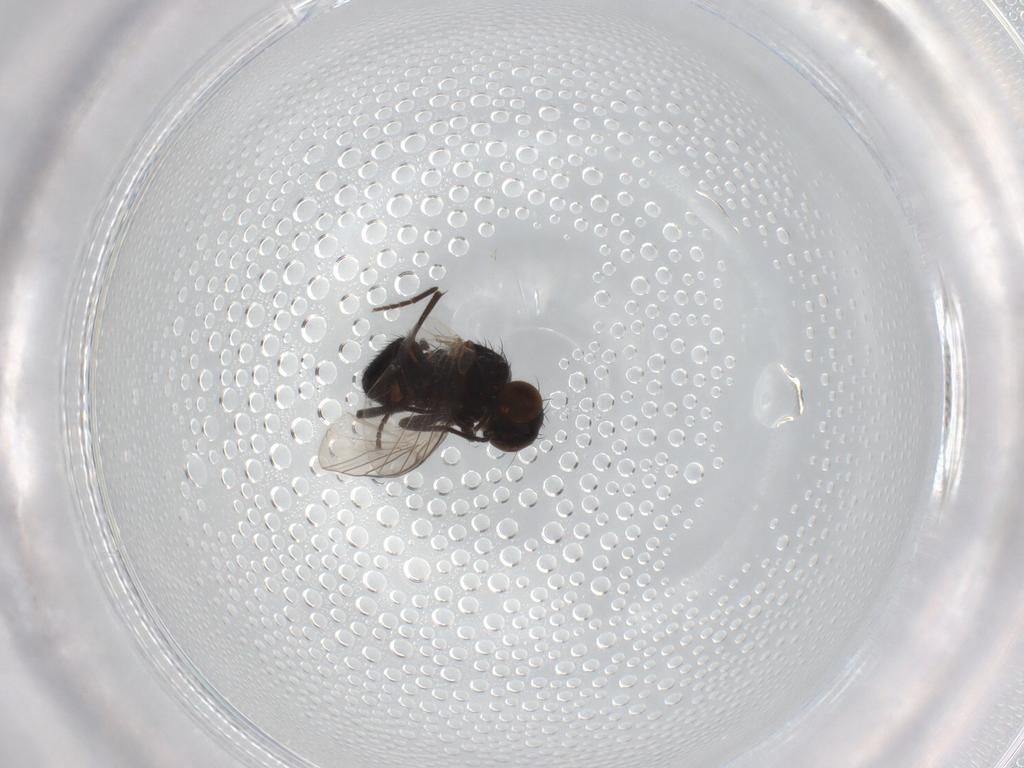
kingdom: Animalia
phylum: Arthropoda
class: Insecta
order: Diptera
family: Agromyzidae
